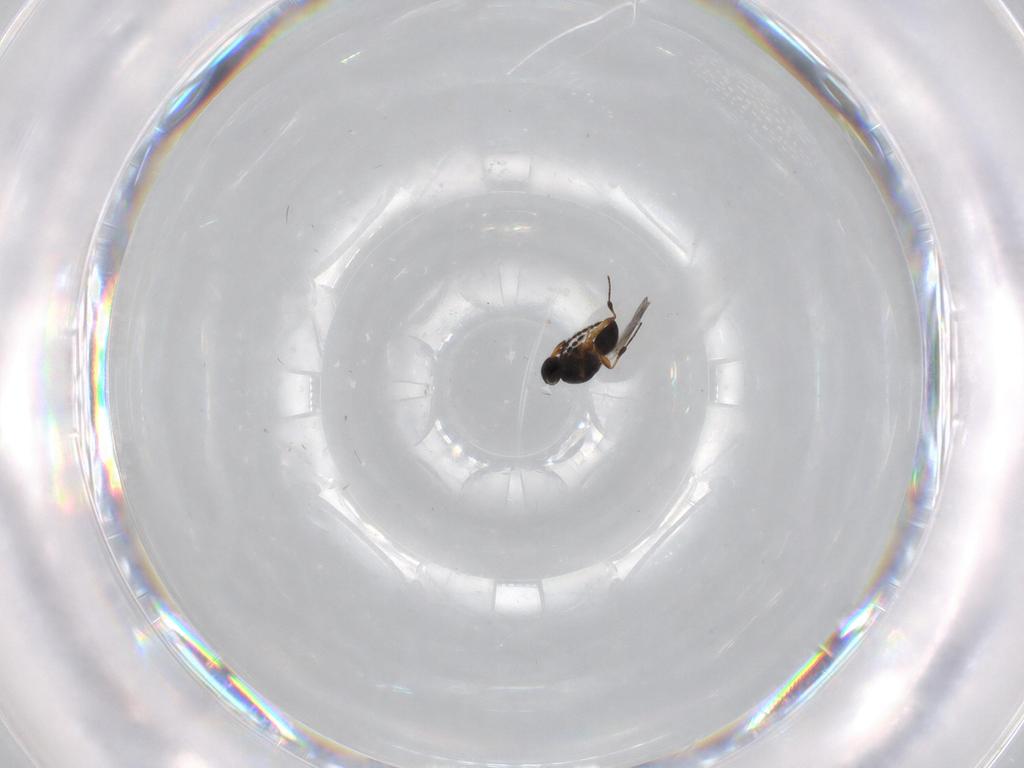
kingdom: Animalia
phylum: Arthropoda
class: Insecta
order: Hymenoptera
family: Platygastridae
